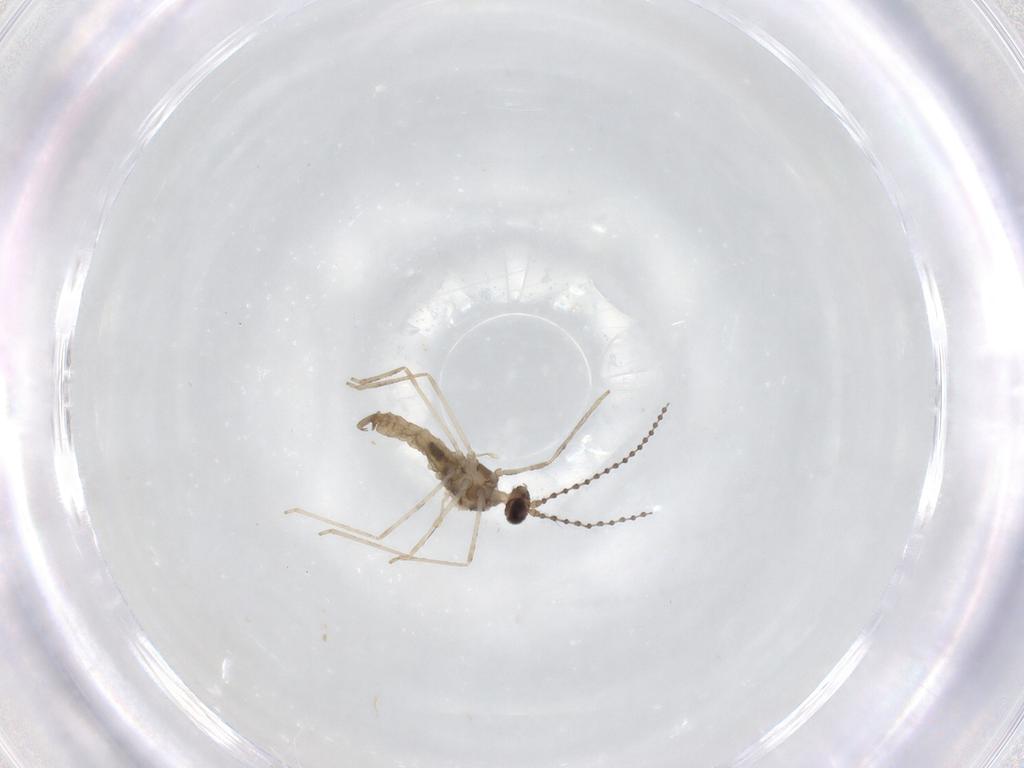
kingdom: Animalia
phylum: Arthropoda
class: Insecta
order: Diptera
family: Cecidomyiidae
